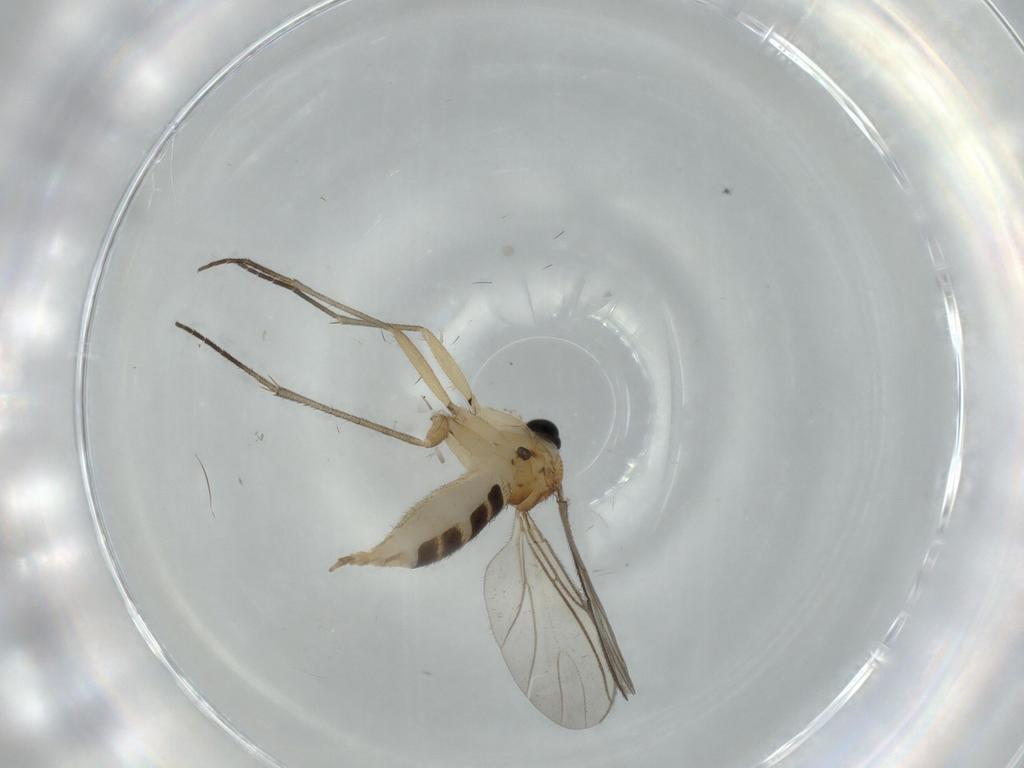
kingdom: Animalia
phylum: Arthropoda
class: Insecta
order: Diptera
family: Sciaridae
